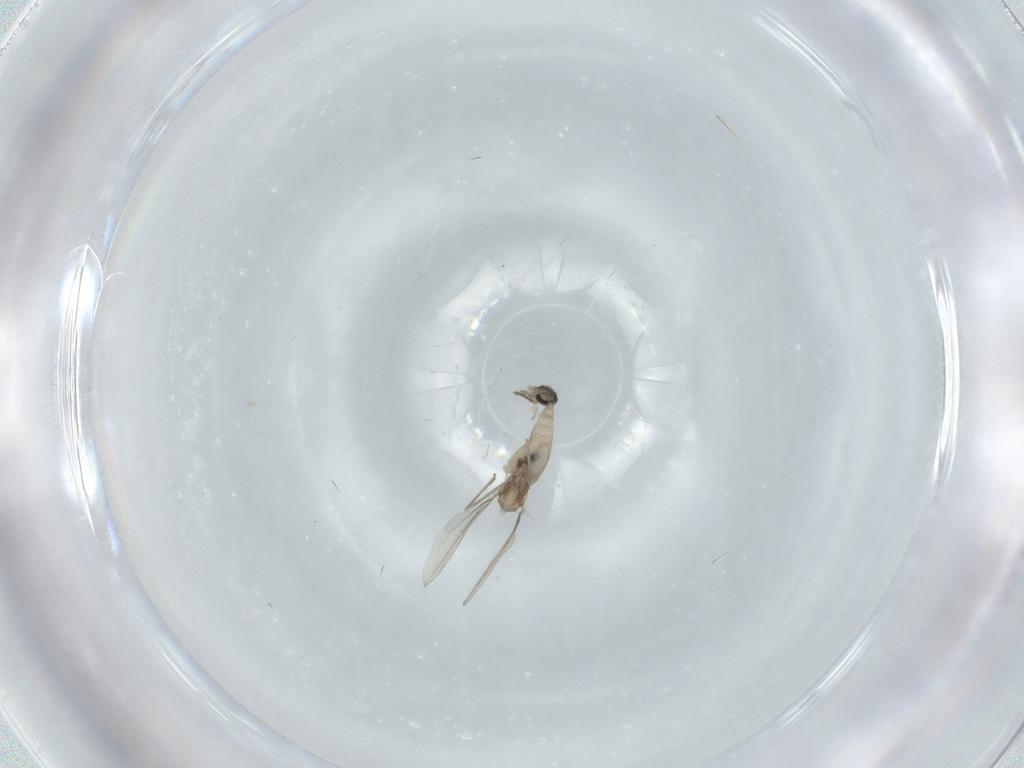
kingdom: Animalia
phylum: Arthropoda
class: Insecta
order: Diptera
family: Cecidomyiidae
